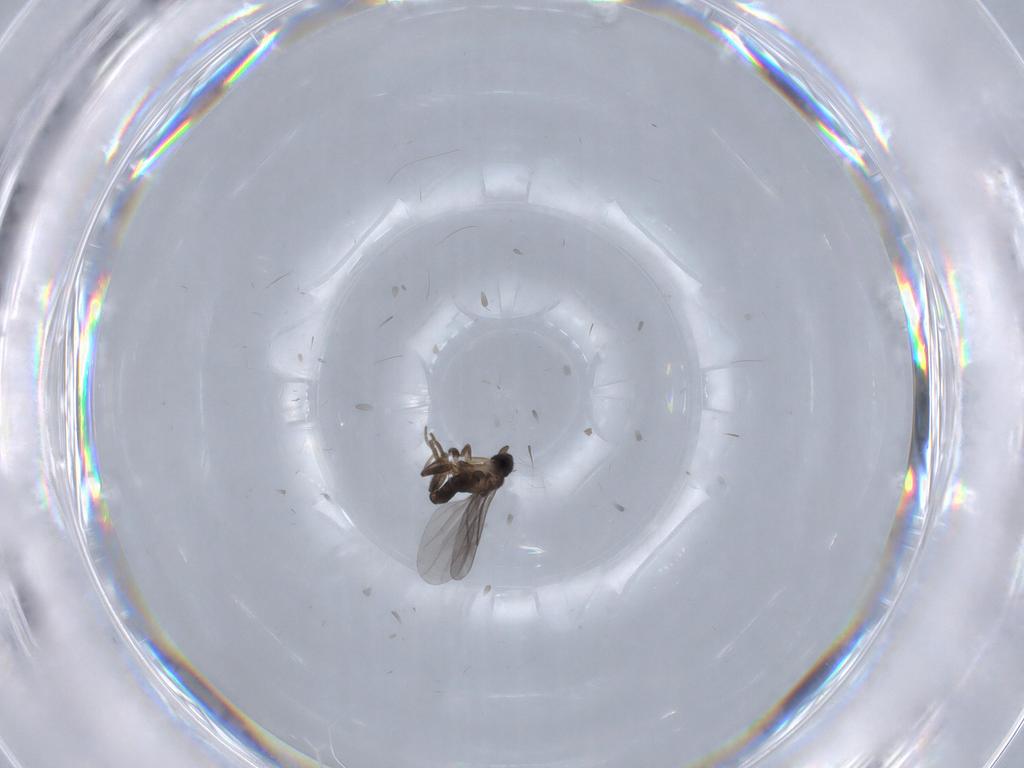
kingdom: Animalia
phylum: Arthropoda
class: Insecta
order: Diptera
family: Phoridae
